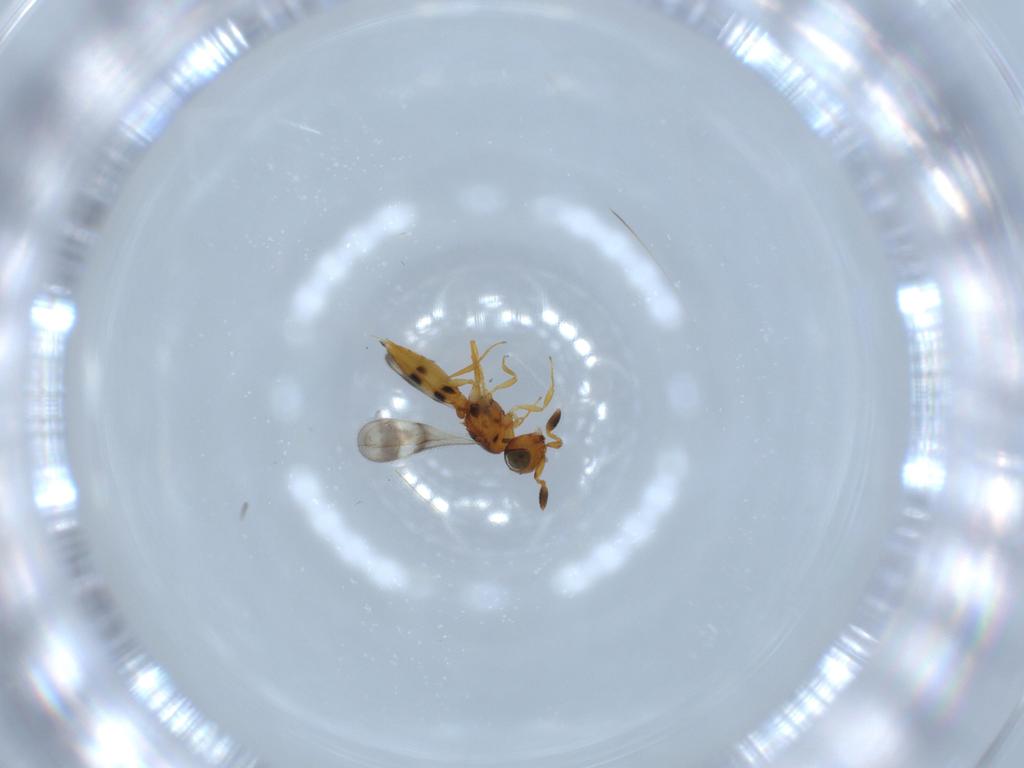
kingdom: Animalia
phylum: Arthropoda
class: Insecta
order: Hymenoptera
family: Scelionidae
